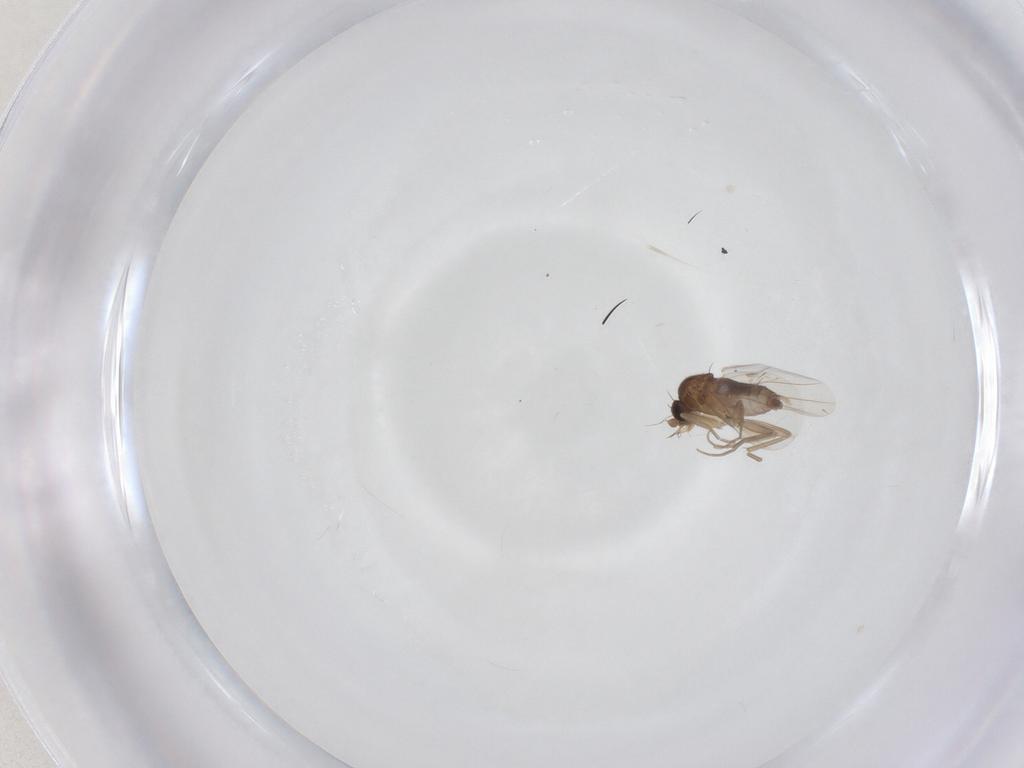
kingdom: Animalia
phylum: Arthropoda
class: Insecta
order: Diptera
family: Phoridae
